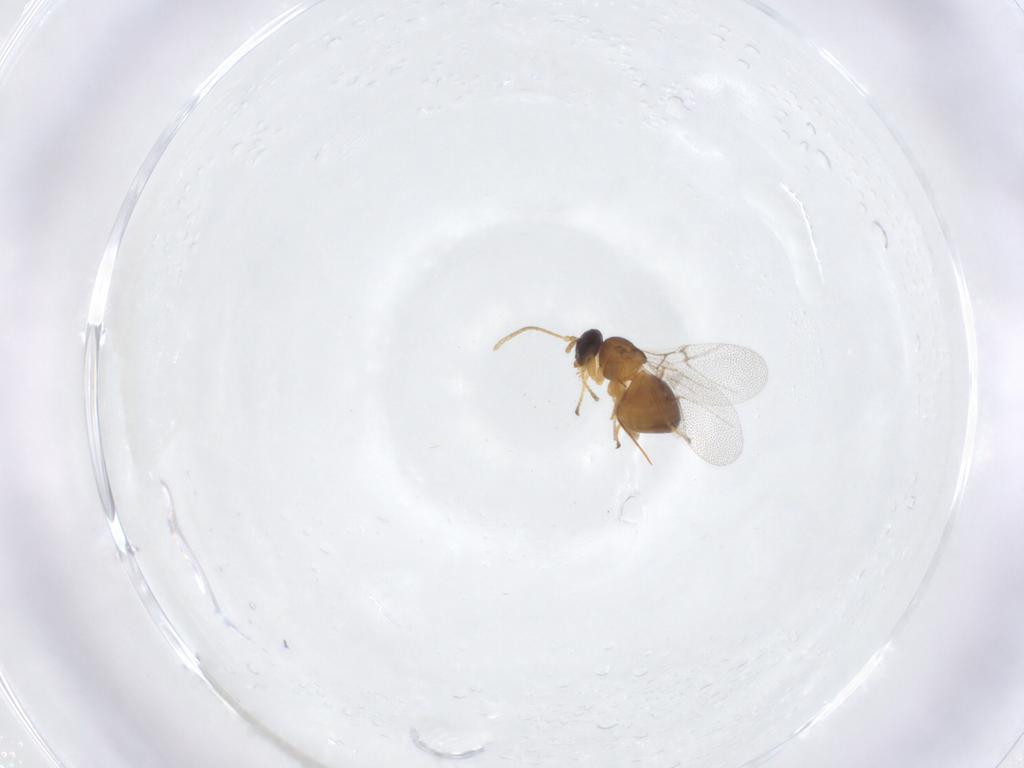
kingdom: Animalia
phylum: Arthropoda
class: Insecta
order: Hymenoptera
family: Cynipidae
